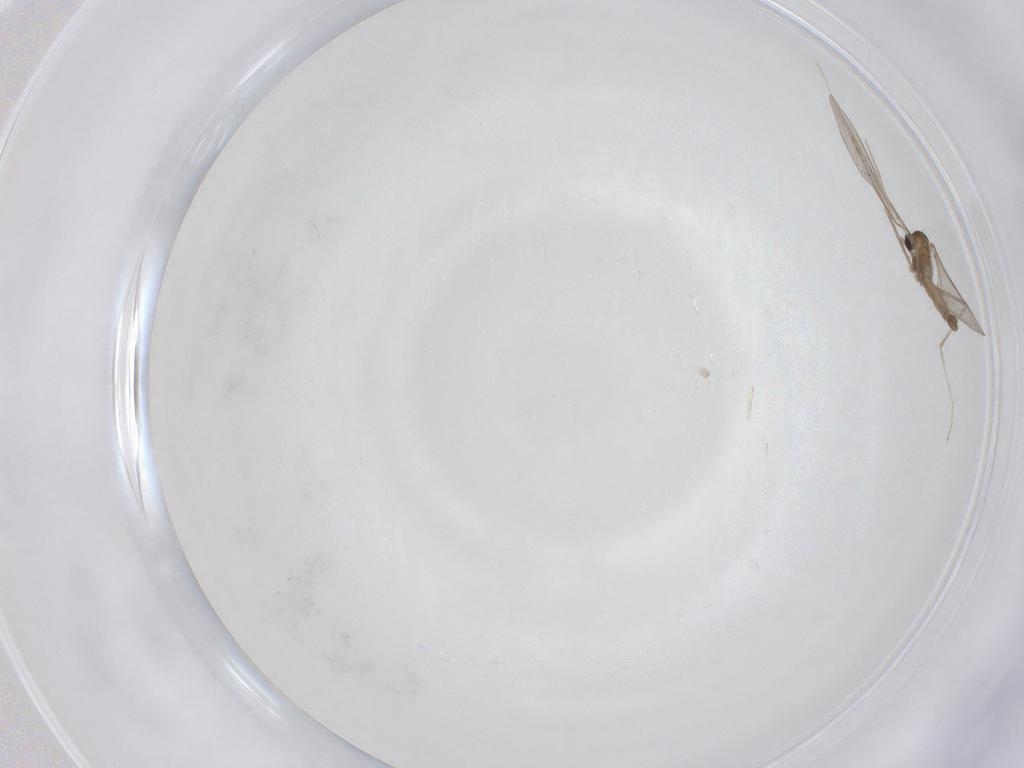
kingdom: Animalia
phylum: Arthropoda
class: Insecta
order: Diptera
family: Cecidomyiidae
